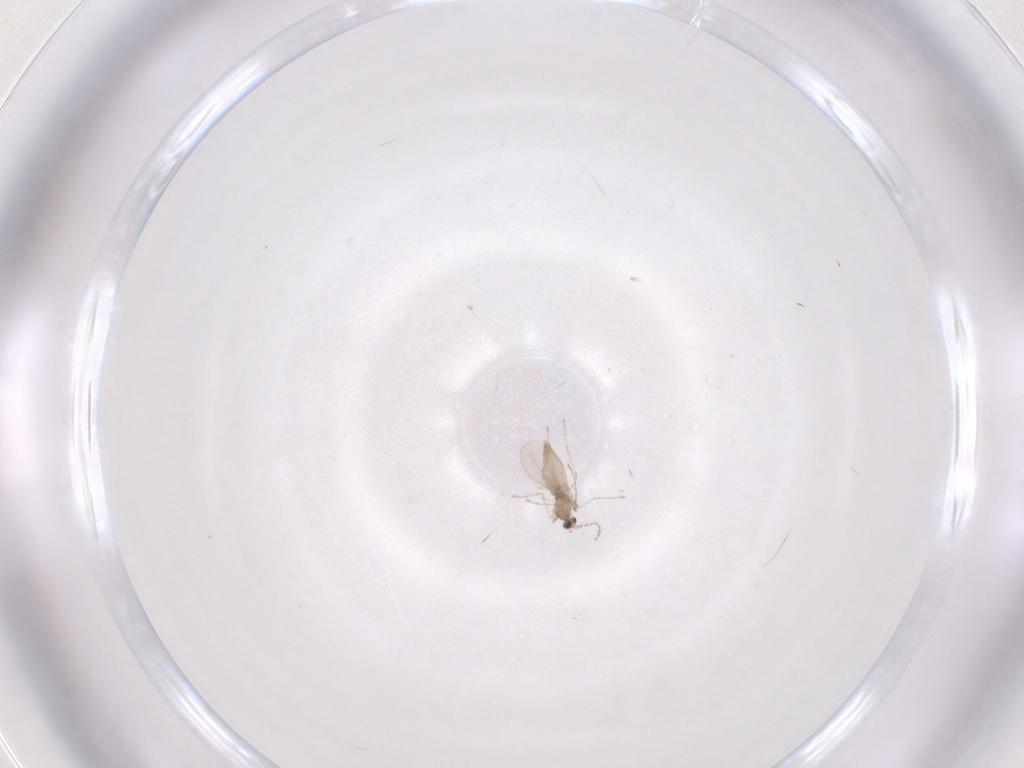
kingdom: Animalia
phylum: Arthropoda
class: Insecta
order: Diptera
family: Cecidomyiidae
